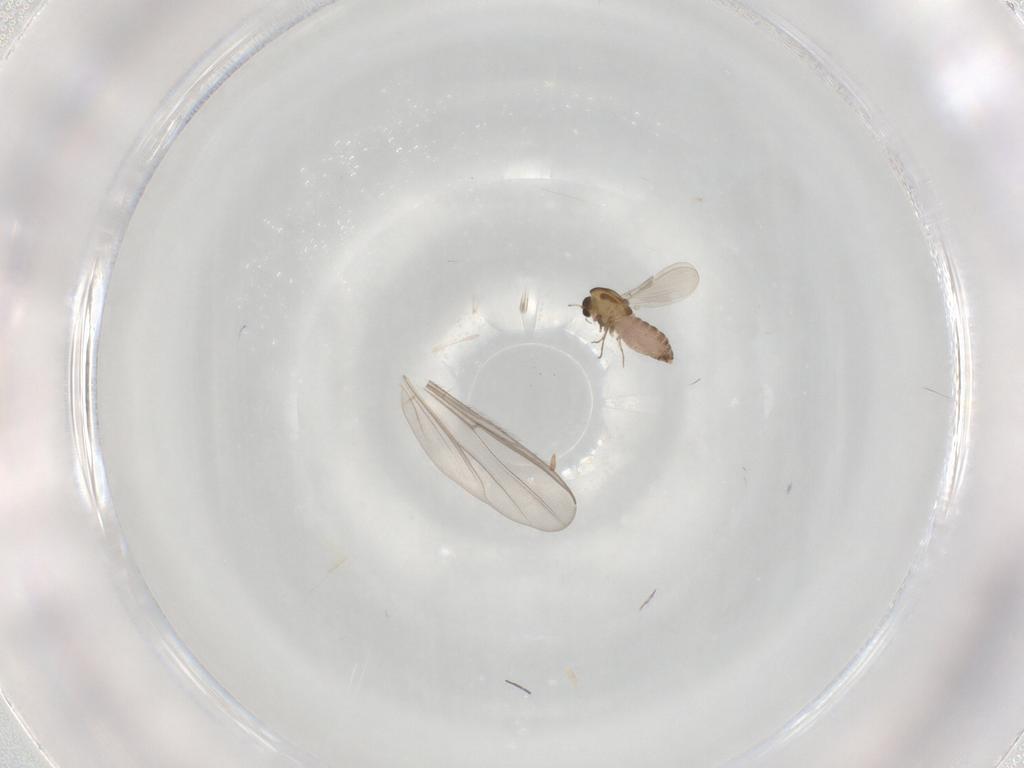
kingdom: Animalia
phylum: Arthropoda
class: Insecta
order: Diptera
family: Chironomidae
